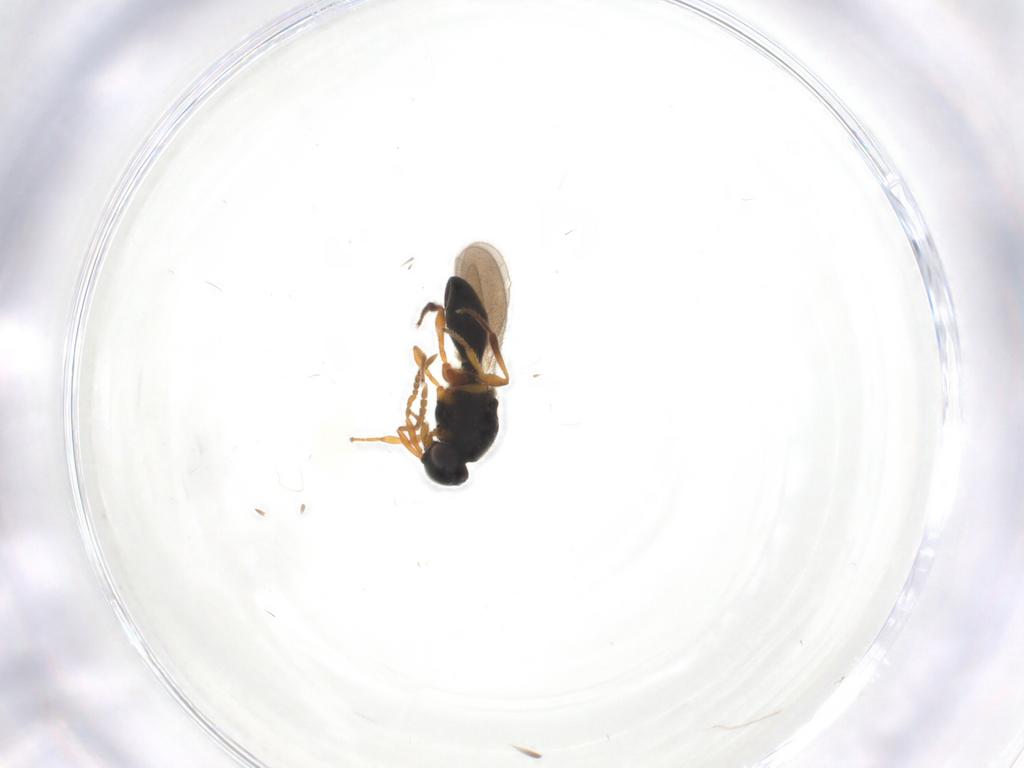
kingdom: Animalia
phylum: Arthropoda
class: Insecta
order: Hymenoptera
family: Platygastridae
